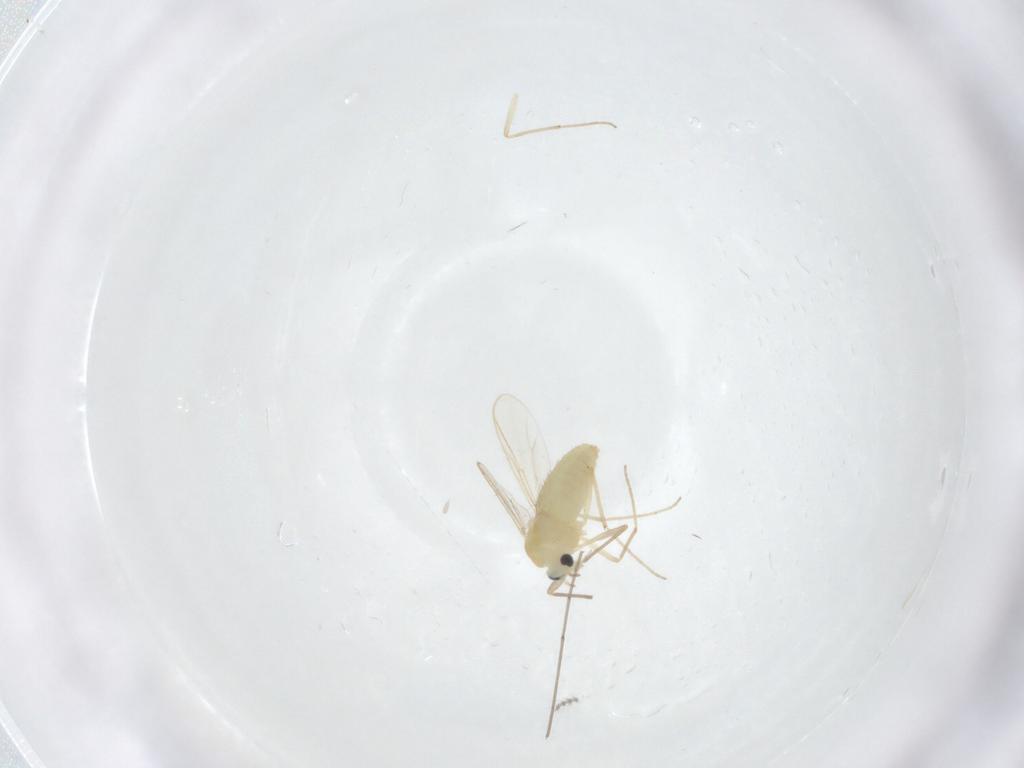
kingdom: Animalia
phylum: Arthropoda
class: Insecta
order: Diptera
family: Chironomidae
